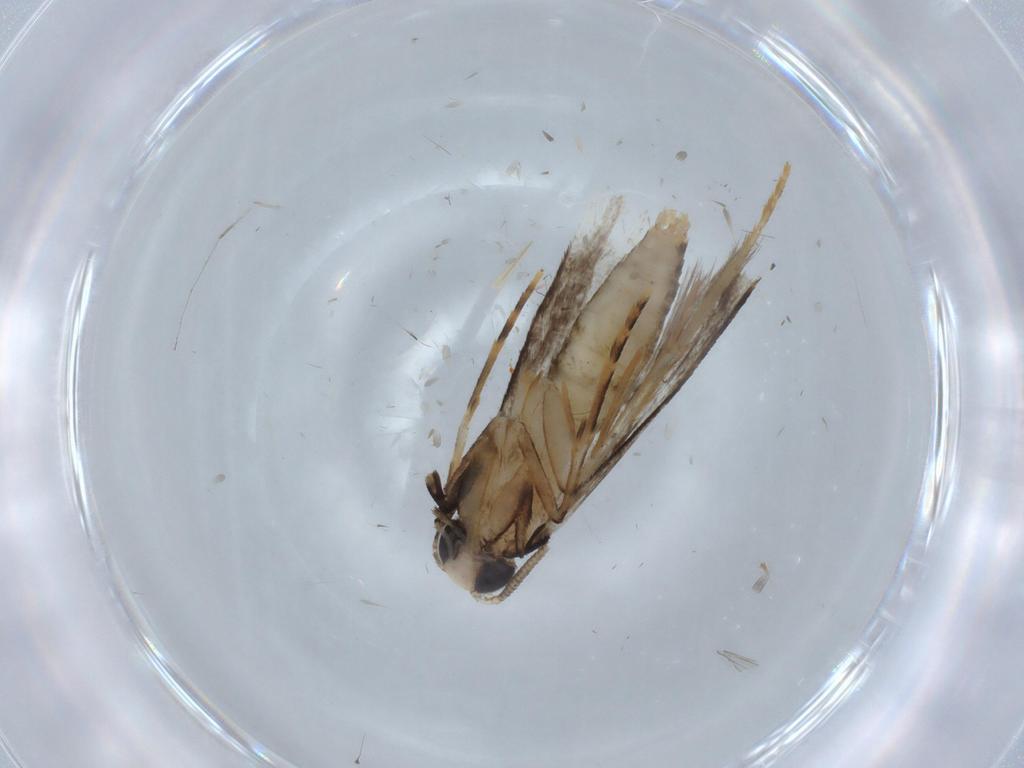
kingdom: Animalia
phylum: Arthropoda
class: Insecta
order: Lepidoptera
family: Tineidae
